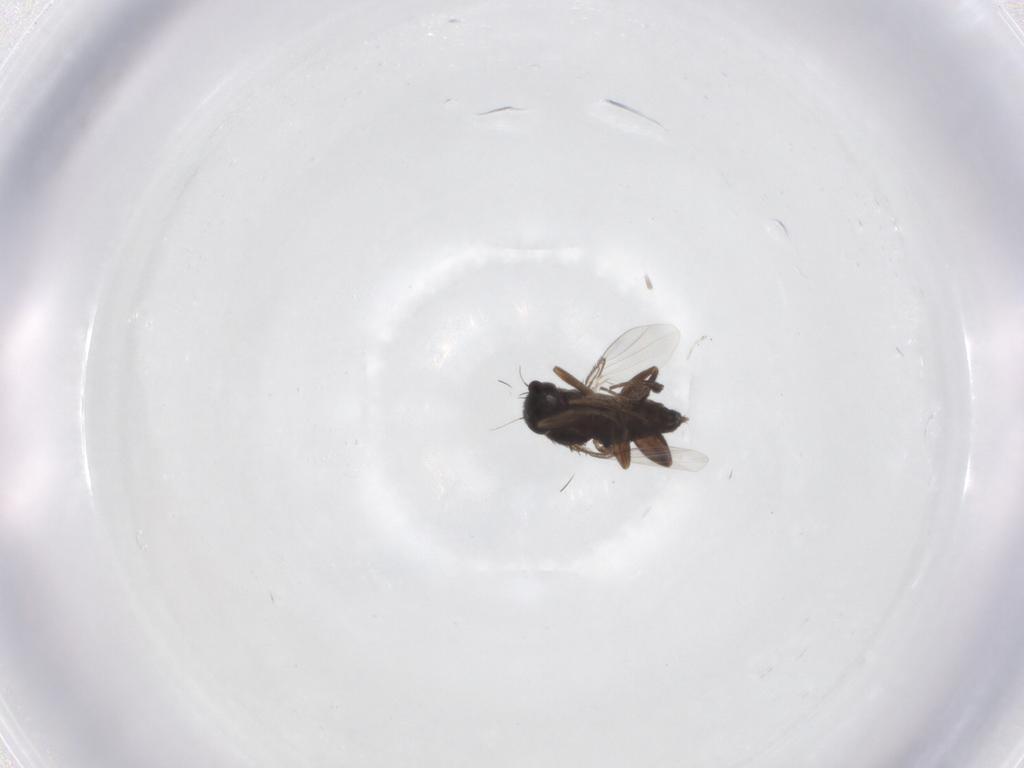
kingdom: Animalia
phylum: Arthropoda
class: Insecta
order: Diptera
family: Phoridae
